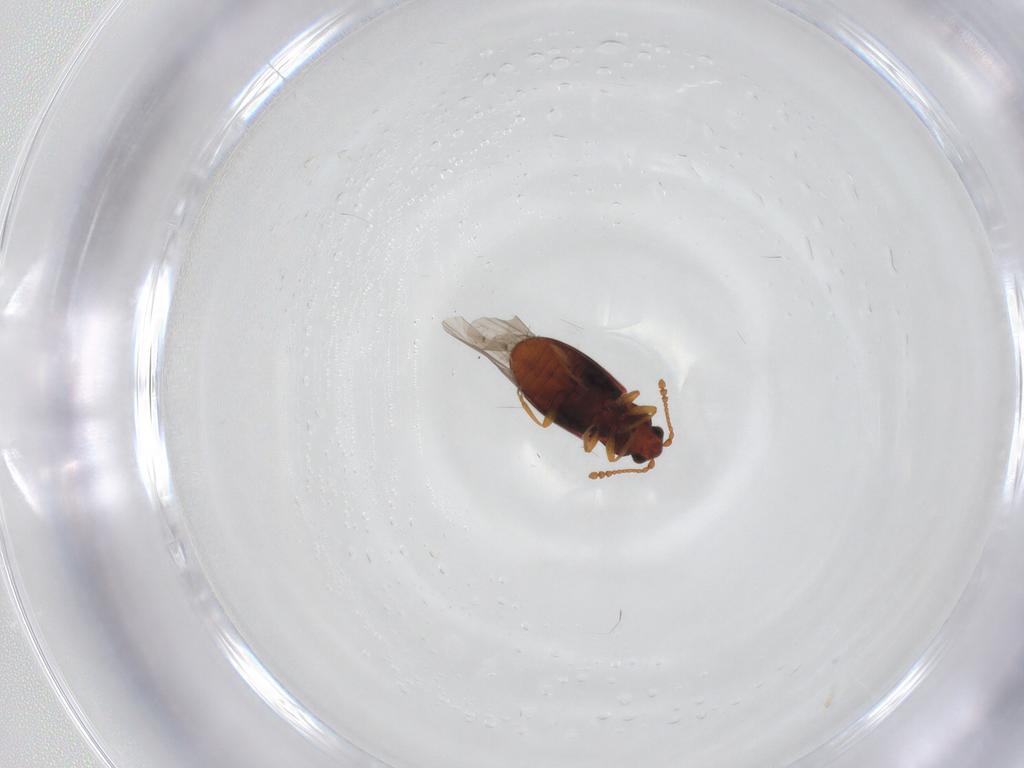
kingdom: Animalia
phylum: Arthropoda
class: Insecta
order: Coleoptera
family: Cryptophagidae
